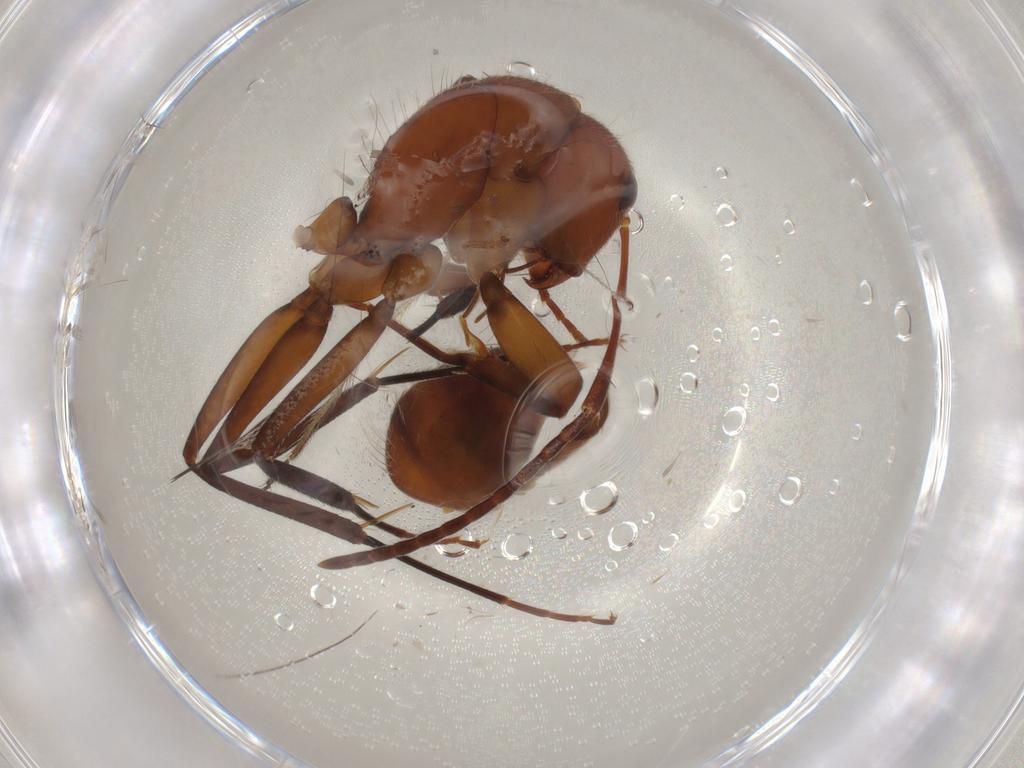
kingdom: Animalia
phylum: Arthropoda
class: Insecta
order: Hymenoptera
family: Formicidae
